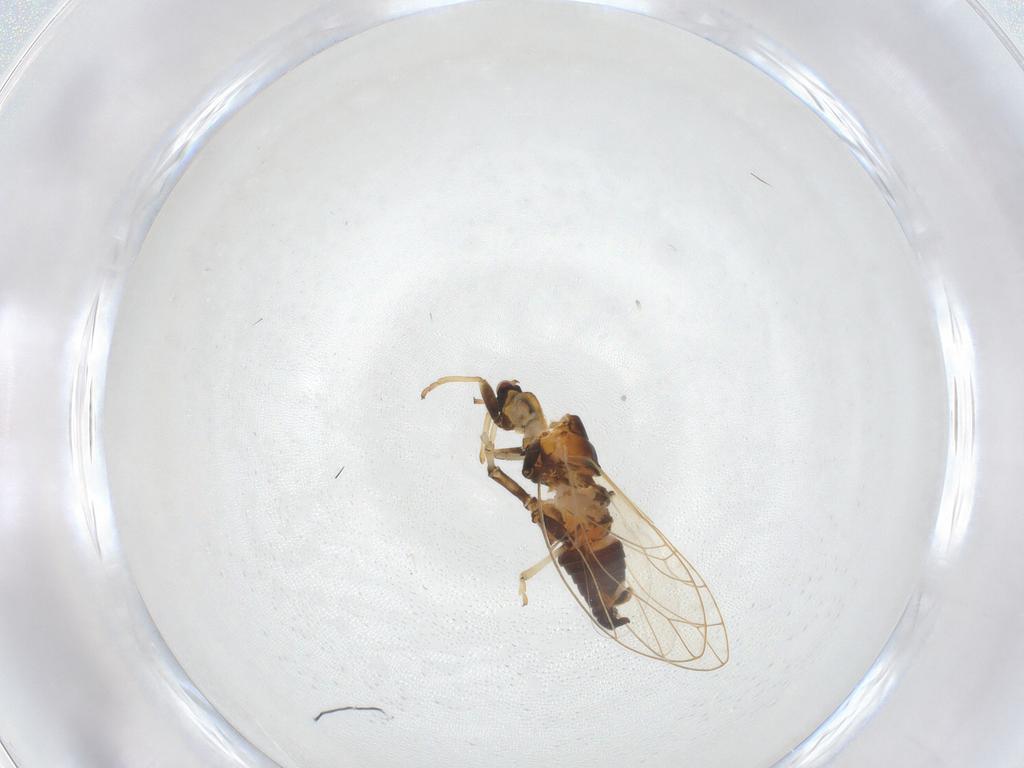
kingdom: Animalia
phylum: Arthropoda
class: Insecta
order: Hemiptera
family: Triozidae
